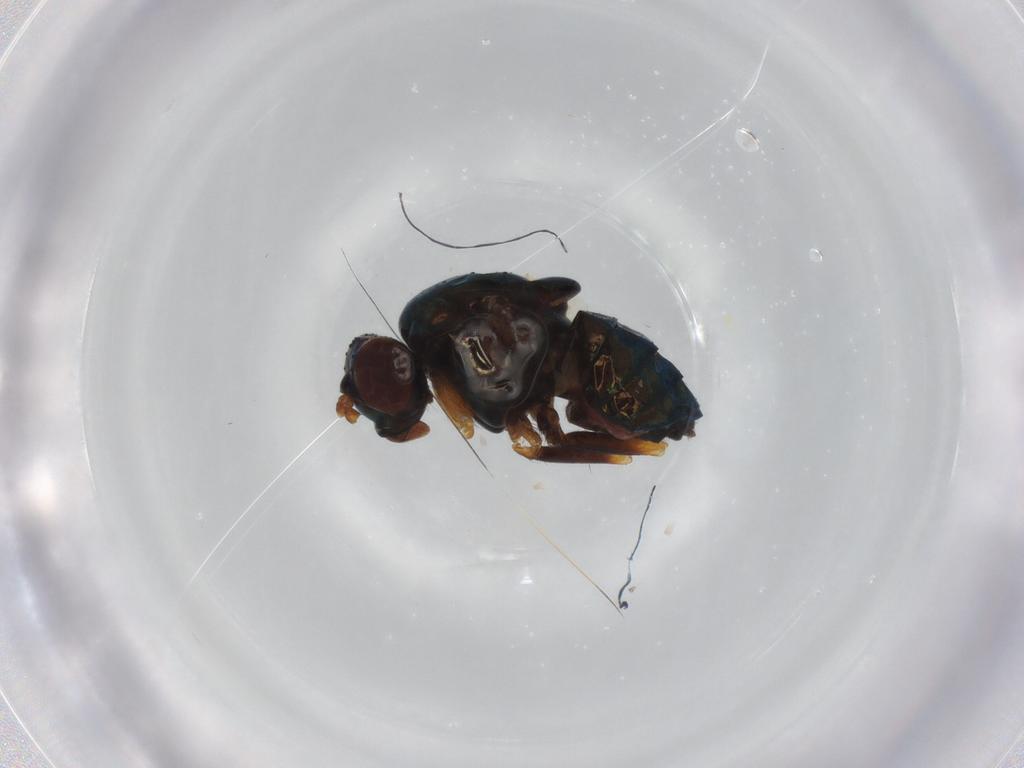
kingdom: Animalia
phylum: Arthropoda
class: Insecta
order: Diptera
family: Lauxaniidae
